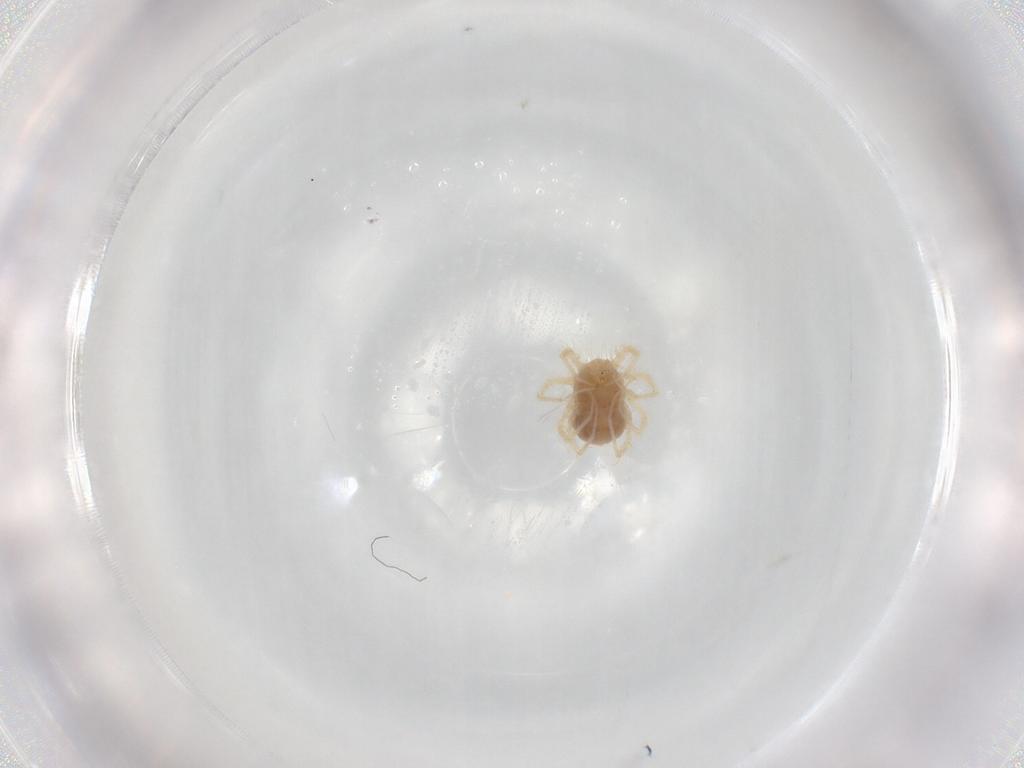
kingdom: Animalia
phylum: Arthropoda
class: Arachnida
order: Trombidiformes
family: Anystidae
